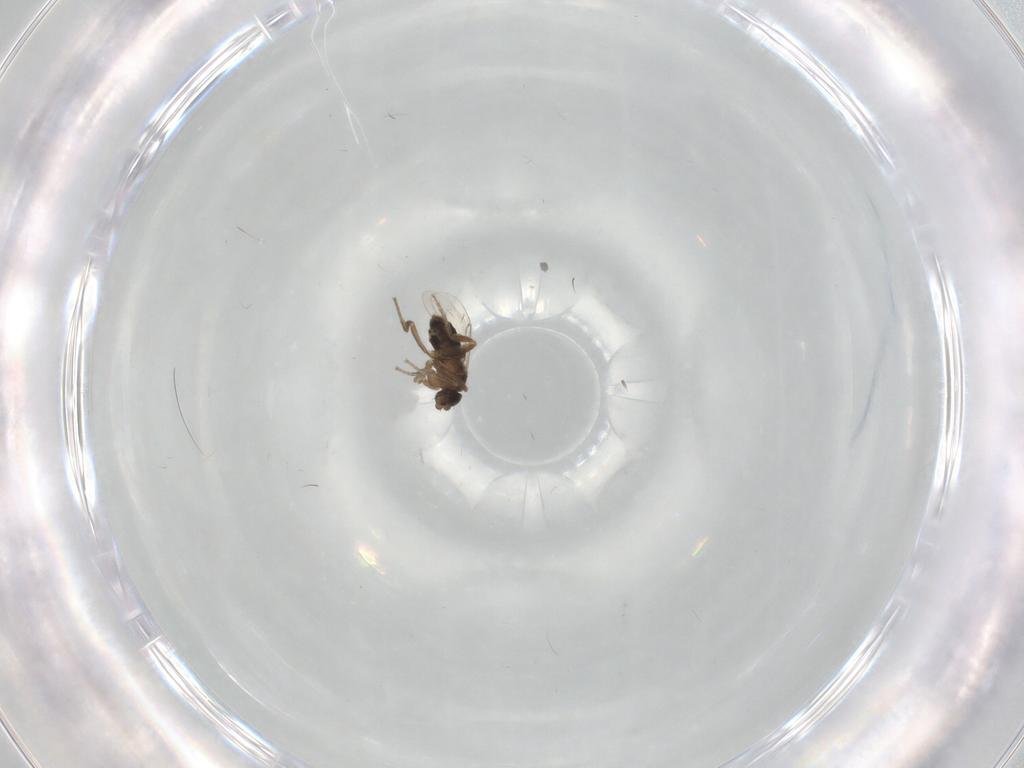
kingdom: Animalia
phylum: Arthropoda
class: Insecta
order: Diptera
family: Phoridae
